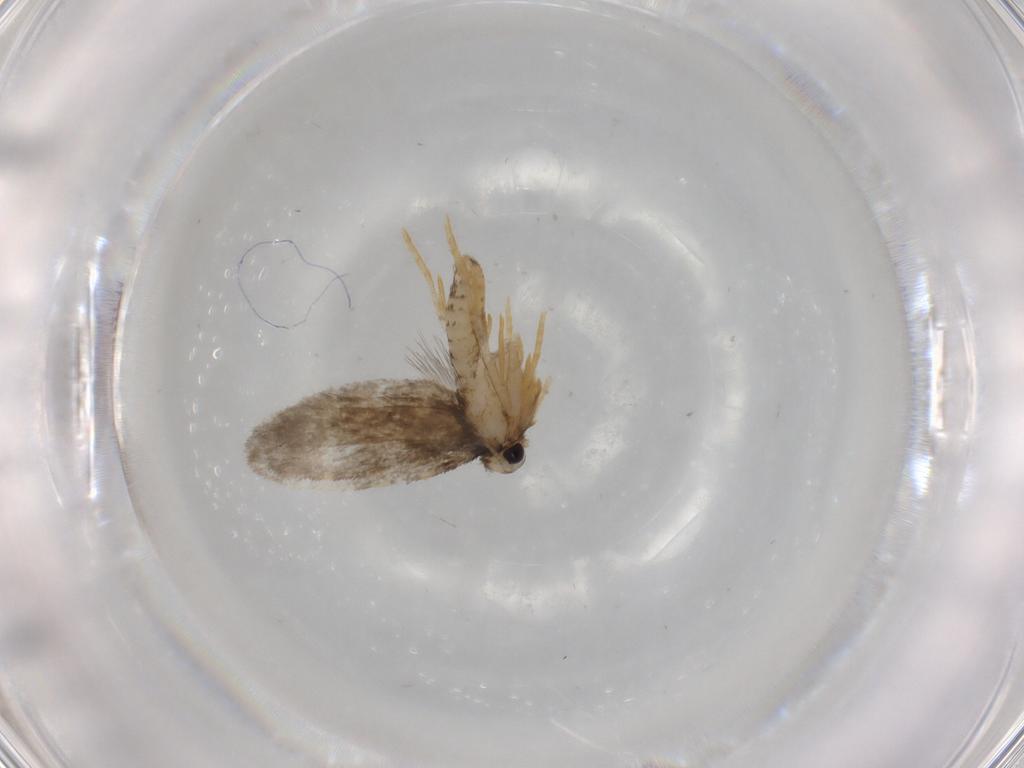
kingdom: Animalia
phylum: Arthropoda
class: Insecta
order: Lepidoptera
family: Psychidae
